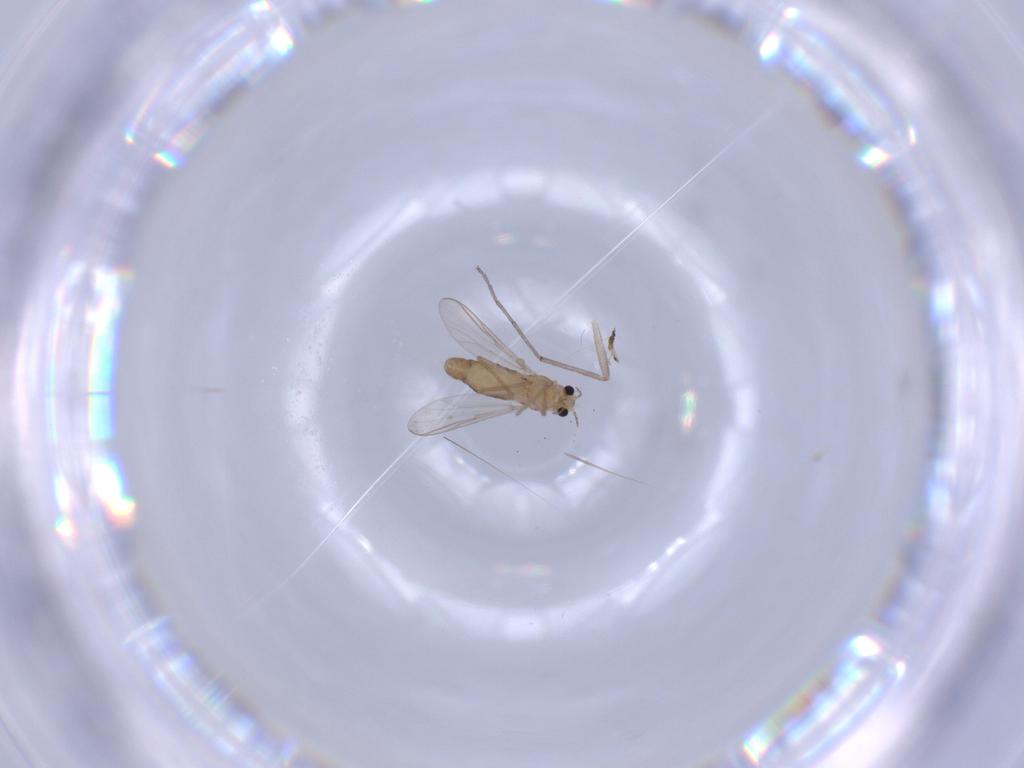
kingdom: Animalia
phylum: Arthropoda
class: Insecta
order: Diptera
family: Chironomidae
